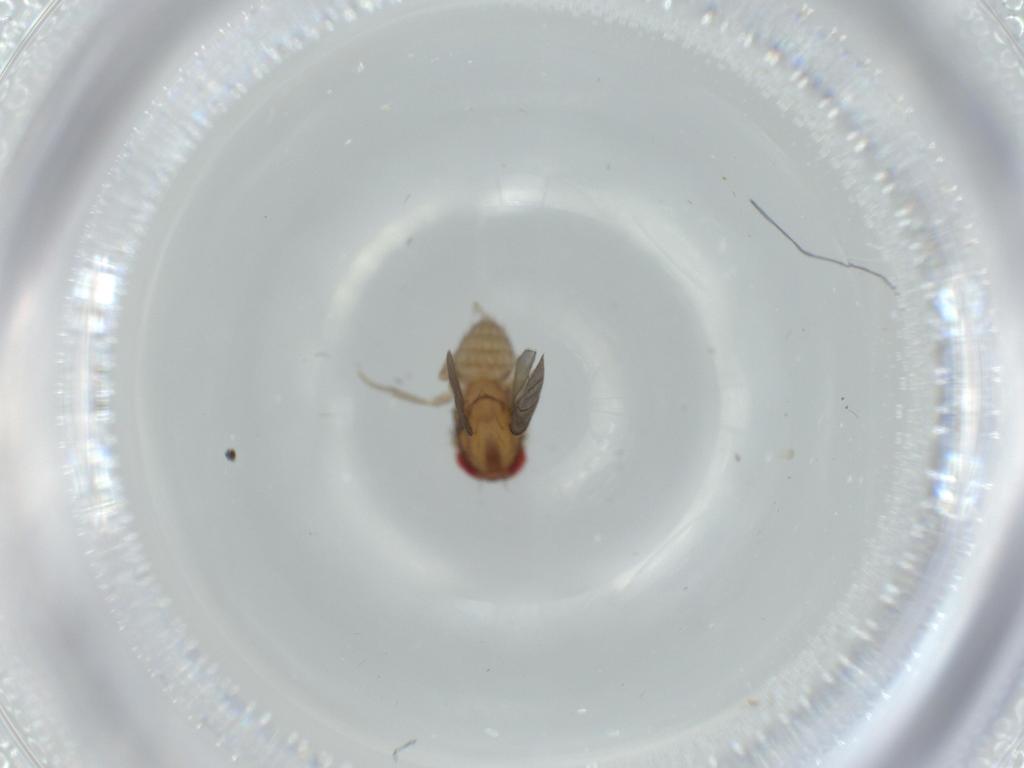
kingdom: Animalia
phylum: Arthropoda
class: Insecta
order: Diptera
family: Drosophilidae
